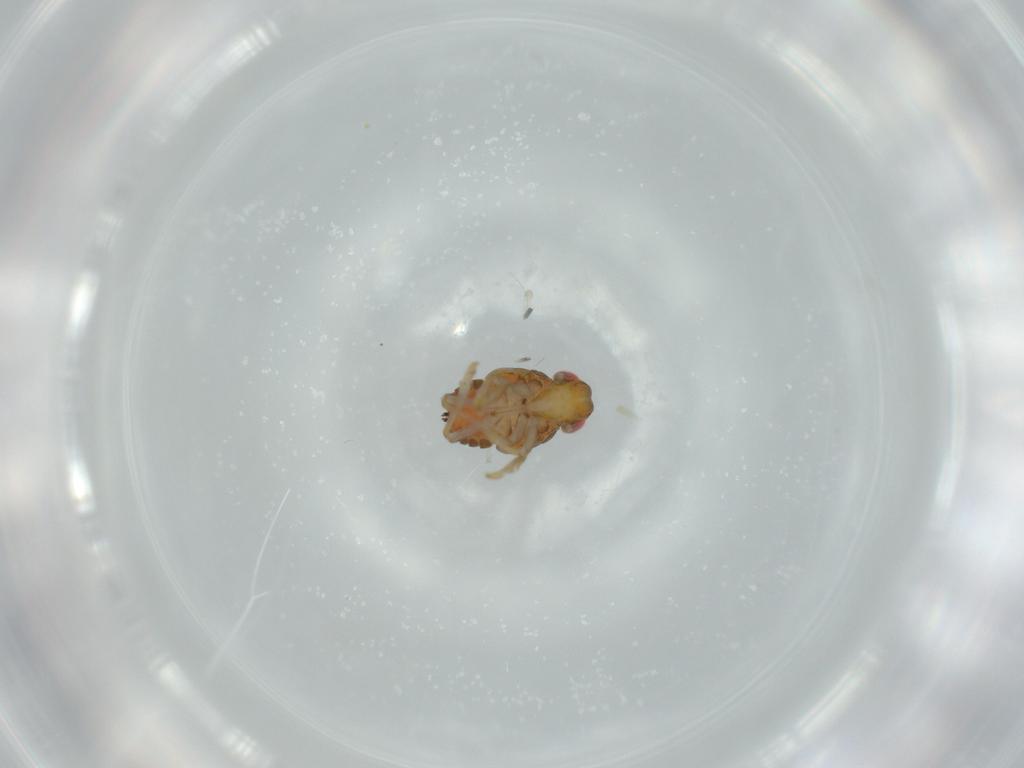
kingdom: Animalia
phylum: Arthropoda
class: Insecta
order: Hemiptera
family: Issidae
